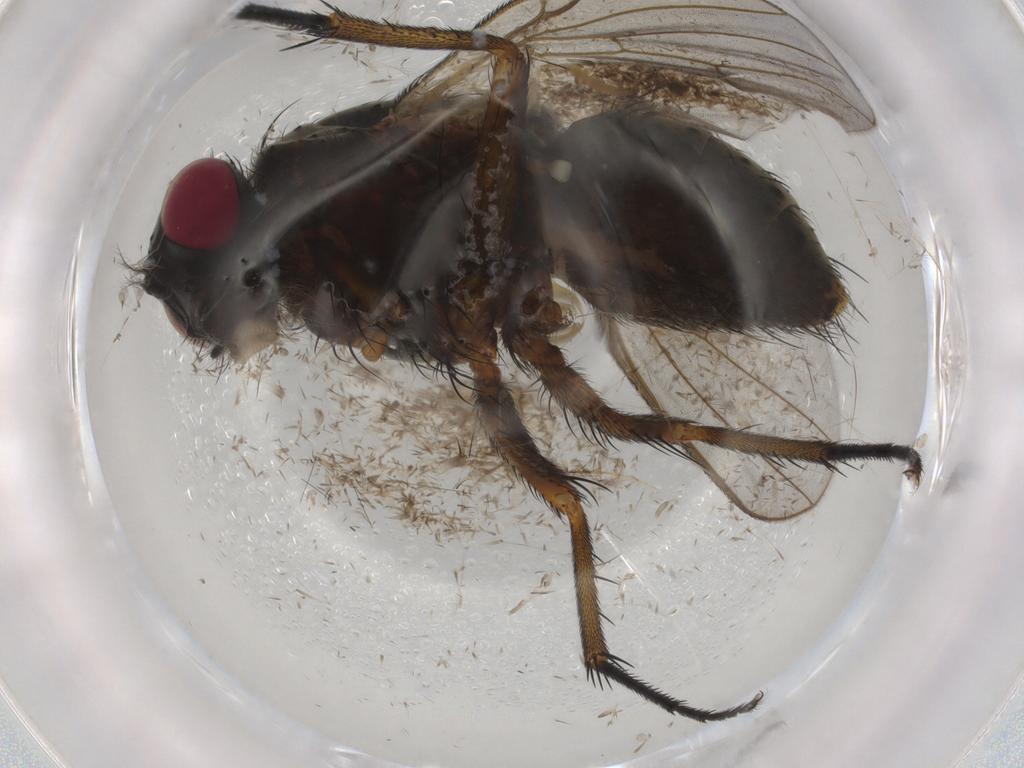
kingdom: Animalia
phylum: Arthropoda
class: Insecta
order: Diptera
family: Muscidae
